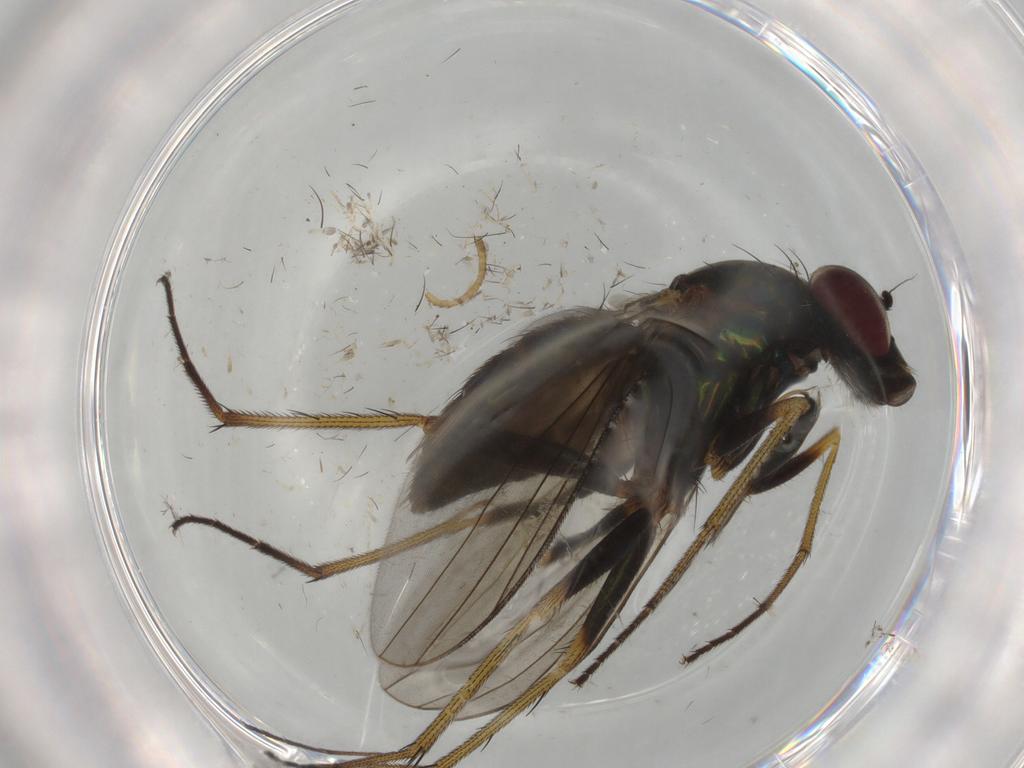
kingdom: Animalia
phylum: Arthropoda
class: Insecta
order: Diptera
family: Dolichopodidae
